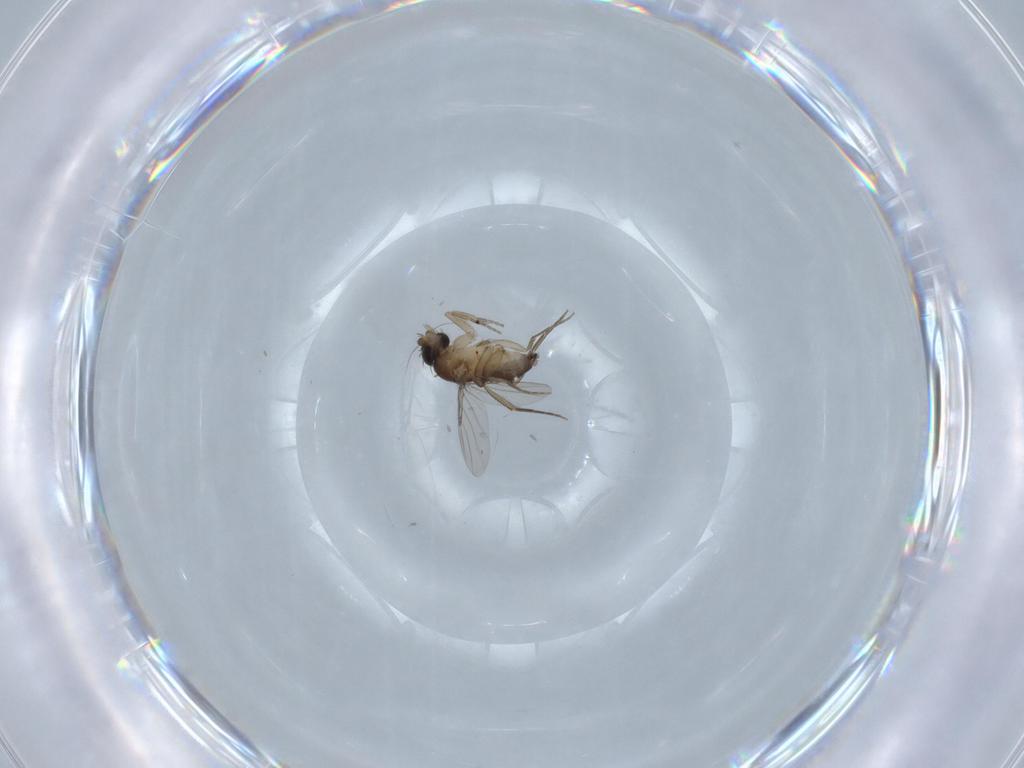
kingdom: Animalia
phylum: Arthropoda
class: Insecta
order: Diptera
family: Phoridae
